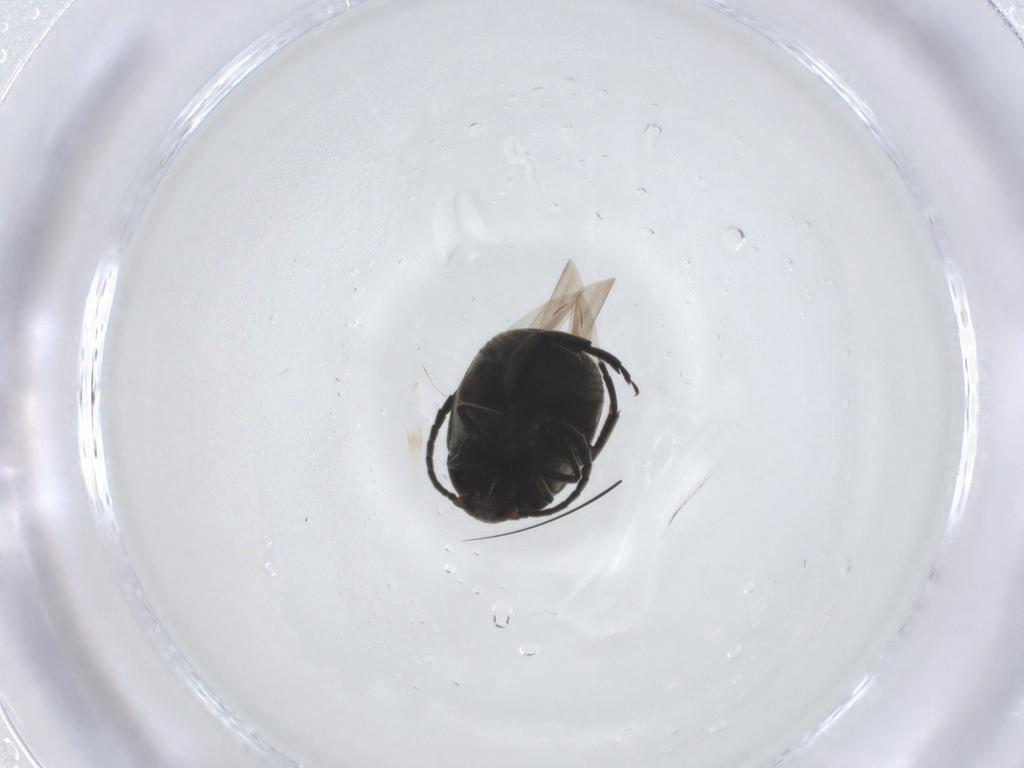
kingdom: Animalia
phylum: Arthropoda
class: Insecta
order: Coleoptera
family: Chrysomelidae
